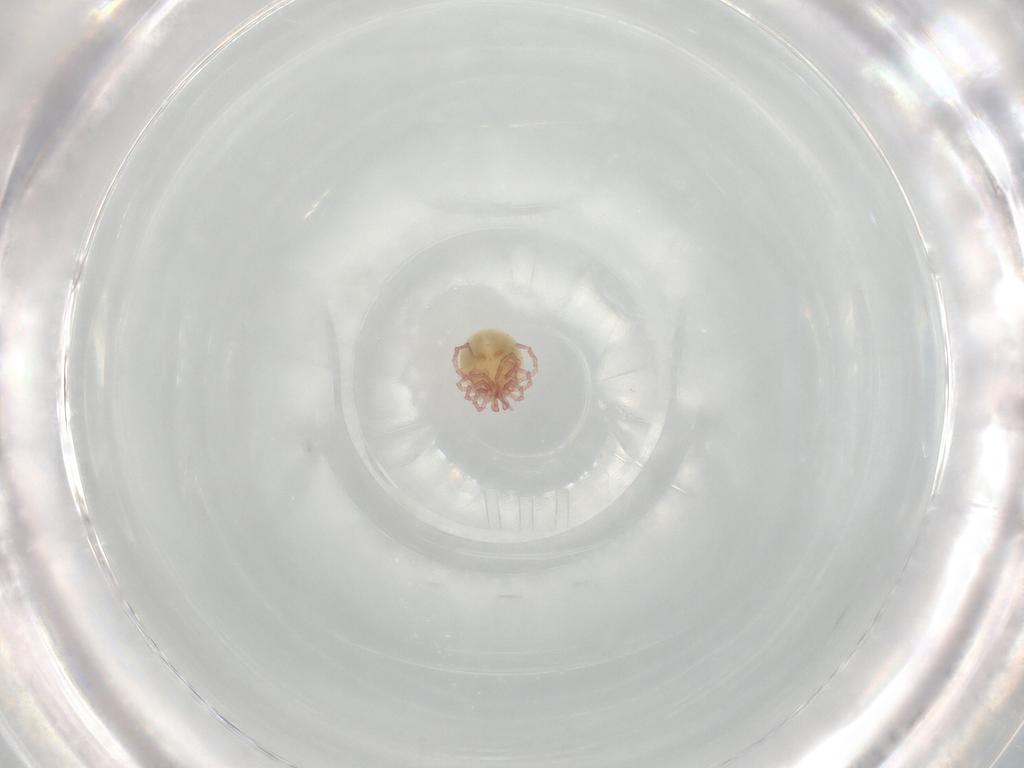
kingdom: Animalia
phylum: Arthropoda
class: Arachnida
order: Trombidiformes
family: Pionidae
